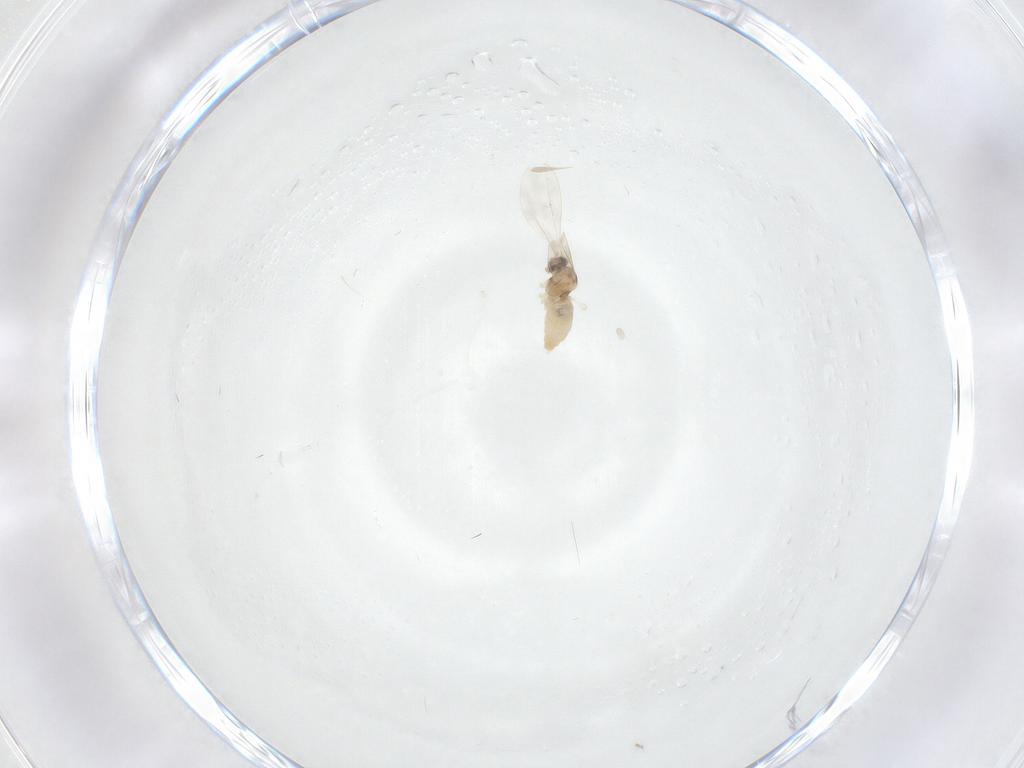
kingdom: Animalia
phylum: Arthropoda
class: Insecta
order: Diptera
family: Cecidomyiidae
